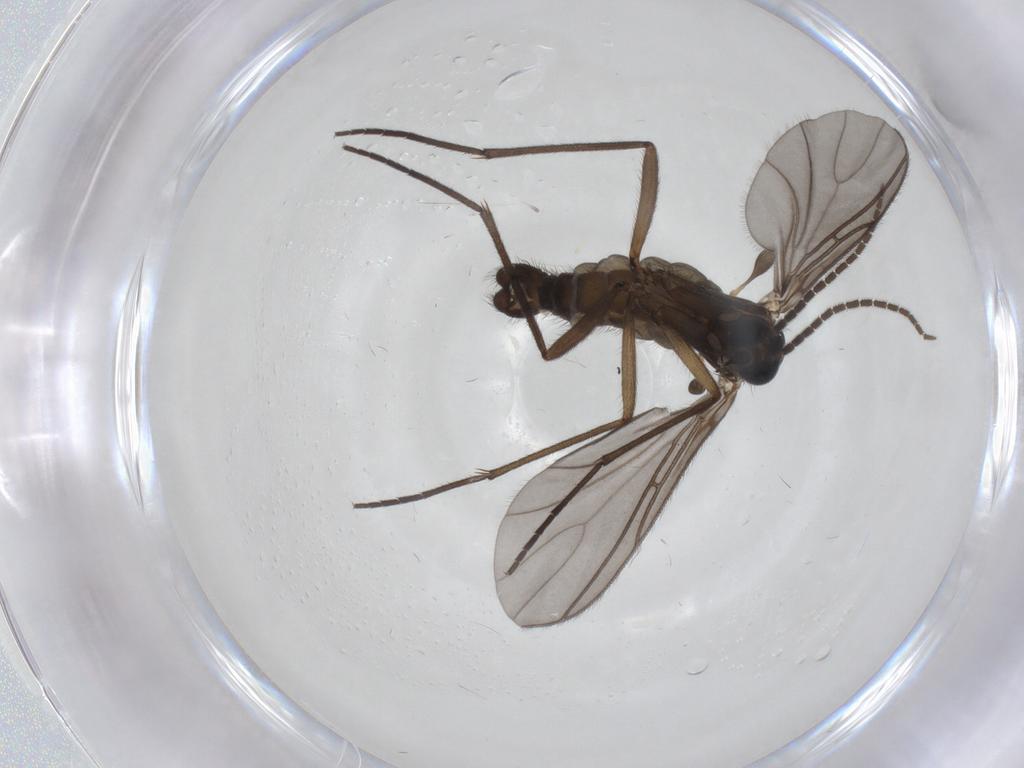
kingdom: Animalia
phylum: Arthropoda
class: Insecta
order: Diptera
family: Sciaridae
